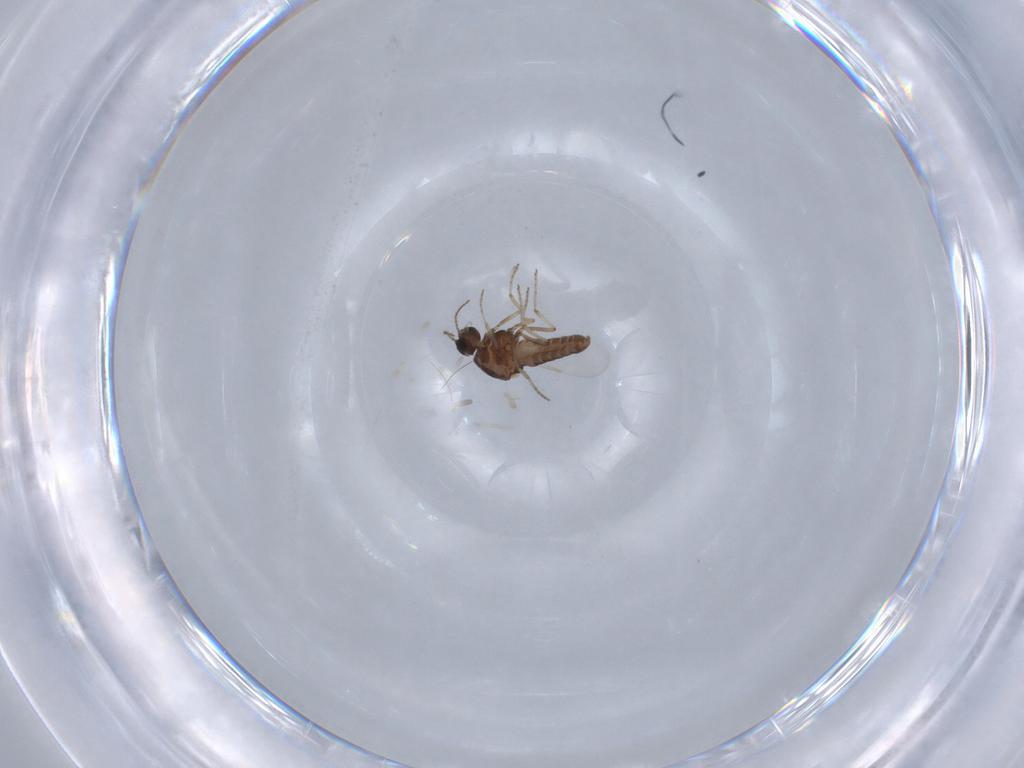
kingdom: Animalia
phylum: Arthropoda
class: Insecta
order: Diptera
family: Ceratopogonidae
